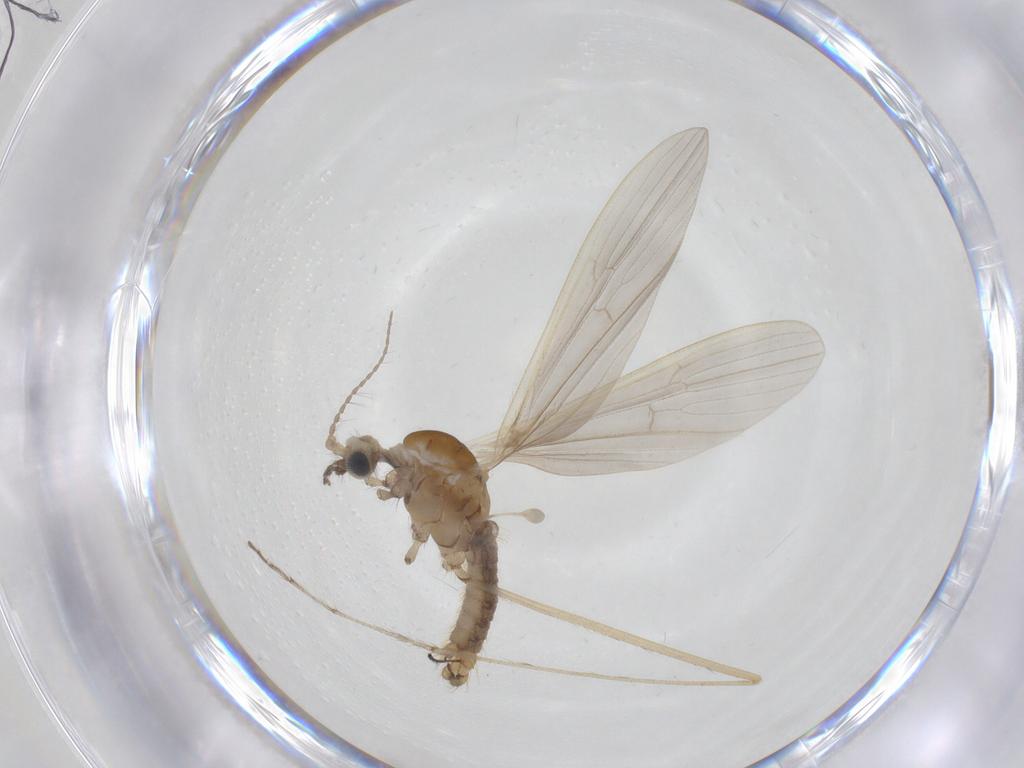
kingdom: Animalia
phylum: Arthropoda
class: Insecta
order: Diptera
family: Limoniidae
